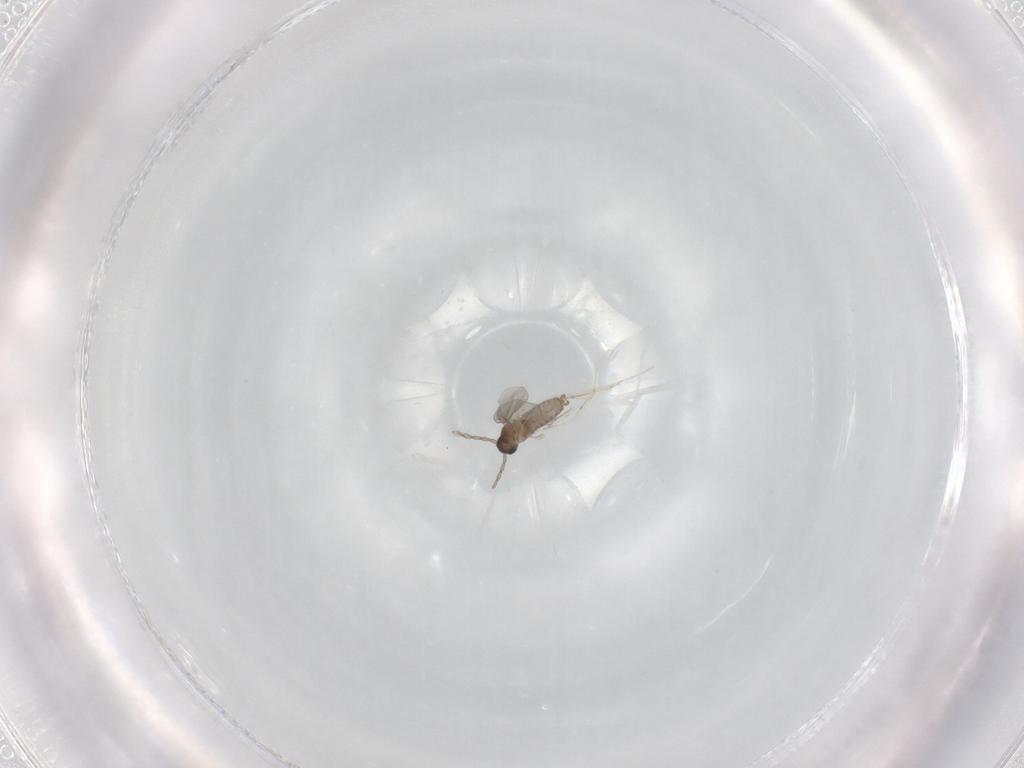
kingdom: Animalia
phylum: Arthropoda
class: Insecta
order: Diptera
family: Cecidomyiidae
